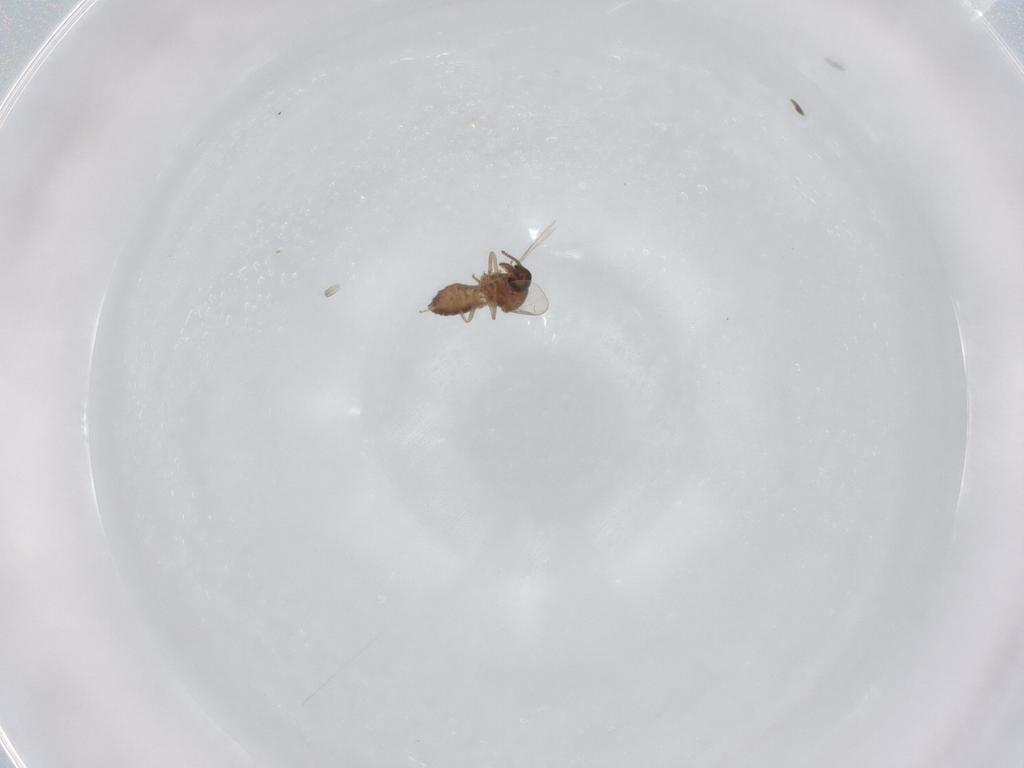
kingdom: Animalia
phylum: Arthropoda
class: Insecta
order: Diptera
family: Ceratopogonidae
